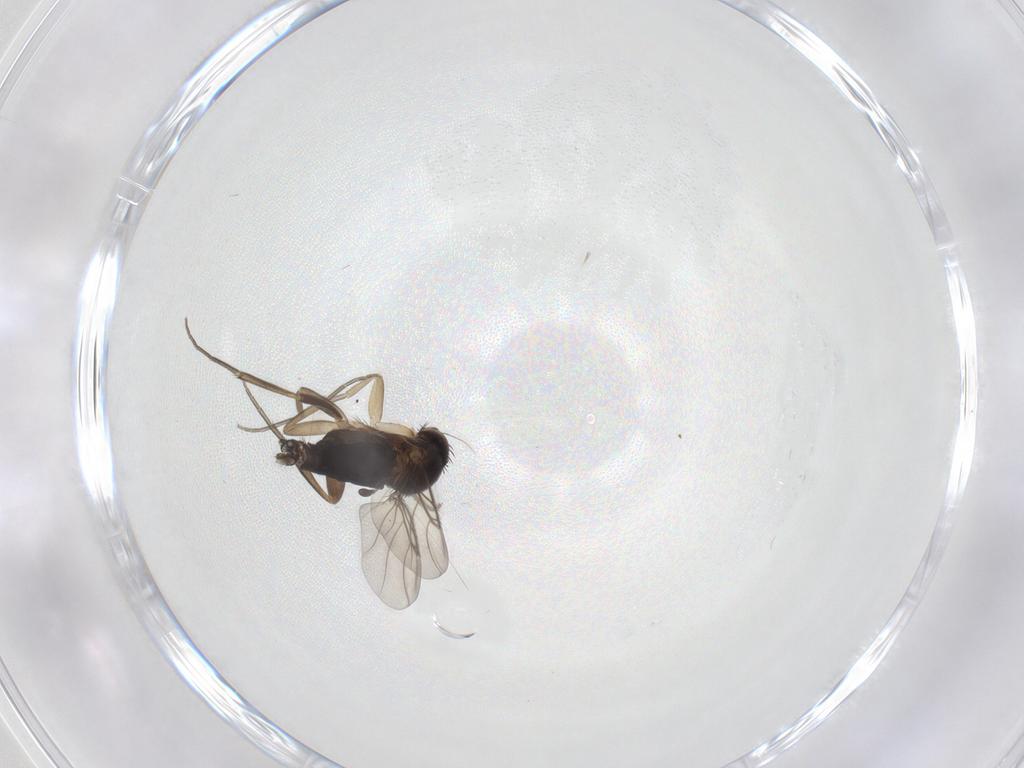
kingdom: Animalia
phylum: Arthropoda
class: Insecta
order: Diptera
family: Phoridae
